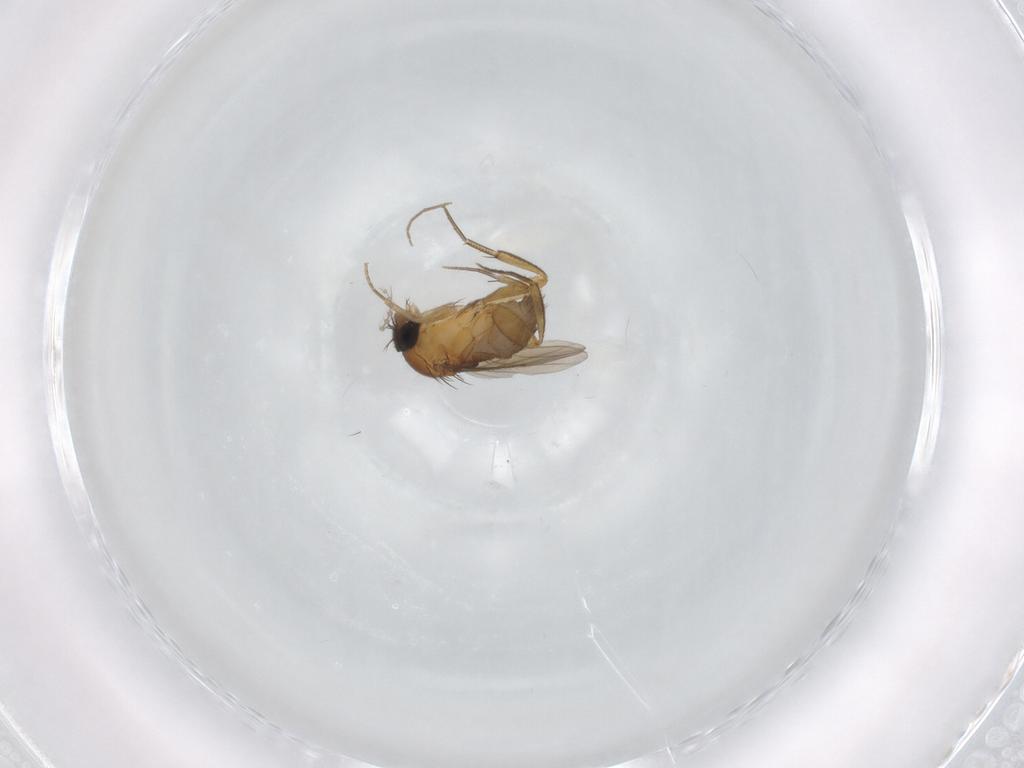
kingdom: Animalia
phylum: Arthropoda
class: Insecta
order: Diptera
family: Phoridae
